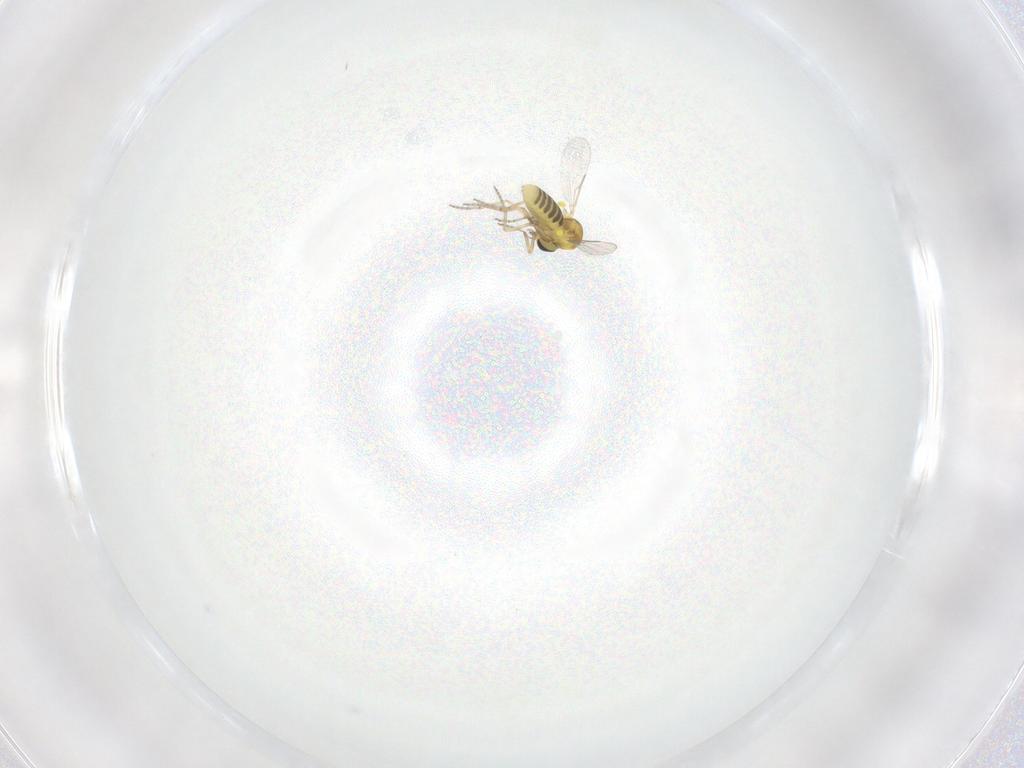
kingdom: Animalia
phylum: Arthropoda
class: Insecta
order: Diptera
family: Ceratopogonidae
